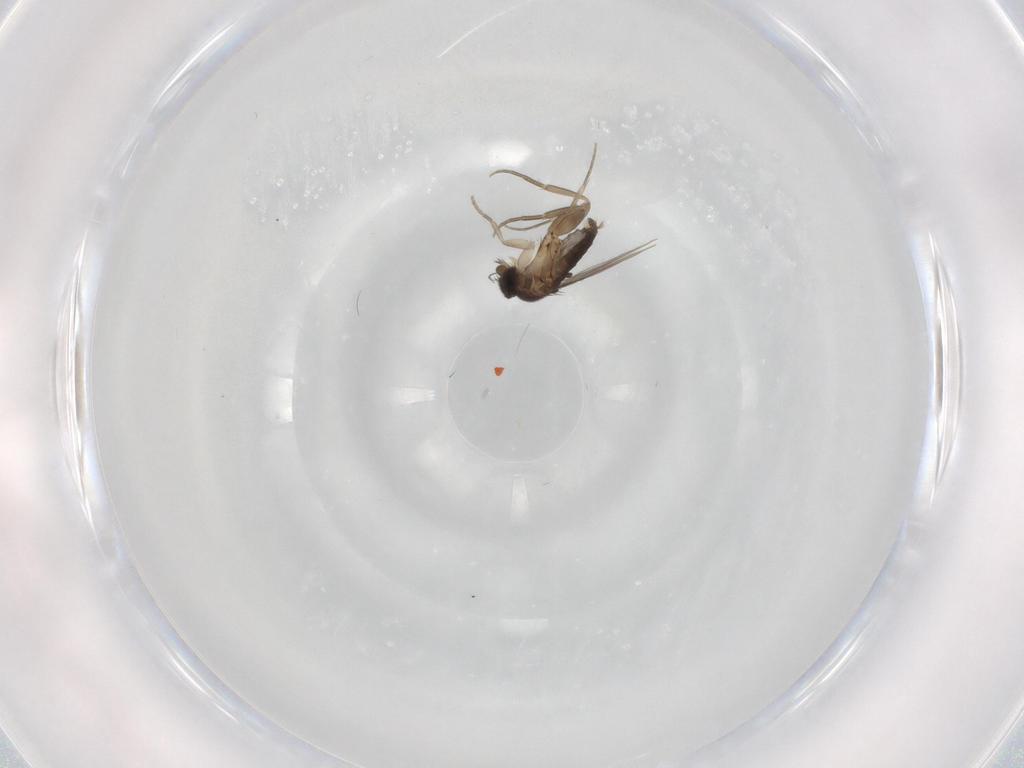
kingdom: Animalia
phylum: Arthropoda
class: Insecta
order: Diptera
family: Phoridae
